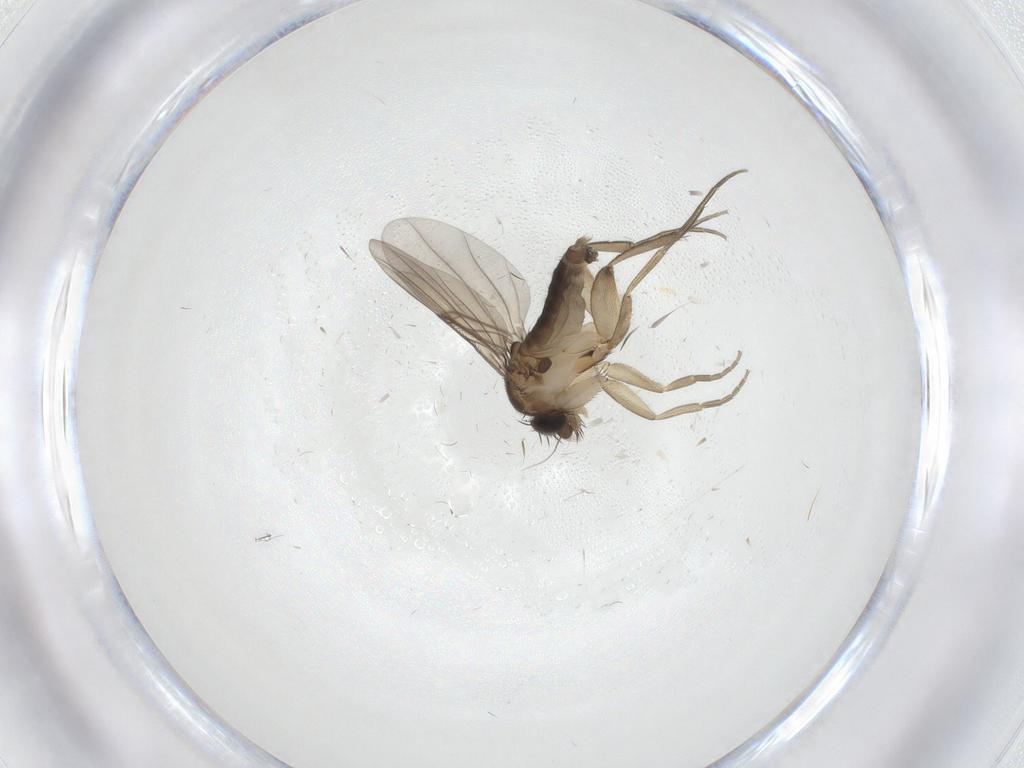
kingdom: Animalia
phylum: Arthropoda
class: Insecta
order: Diptera
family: Phoridae
